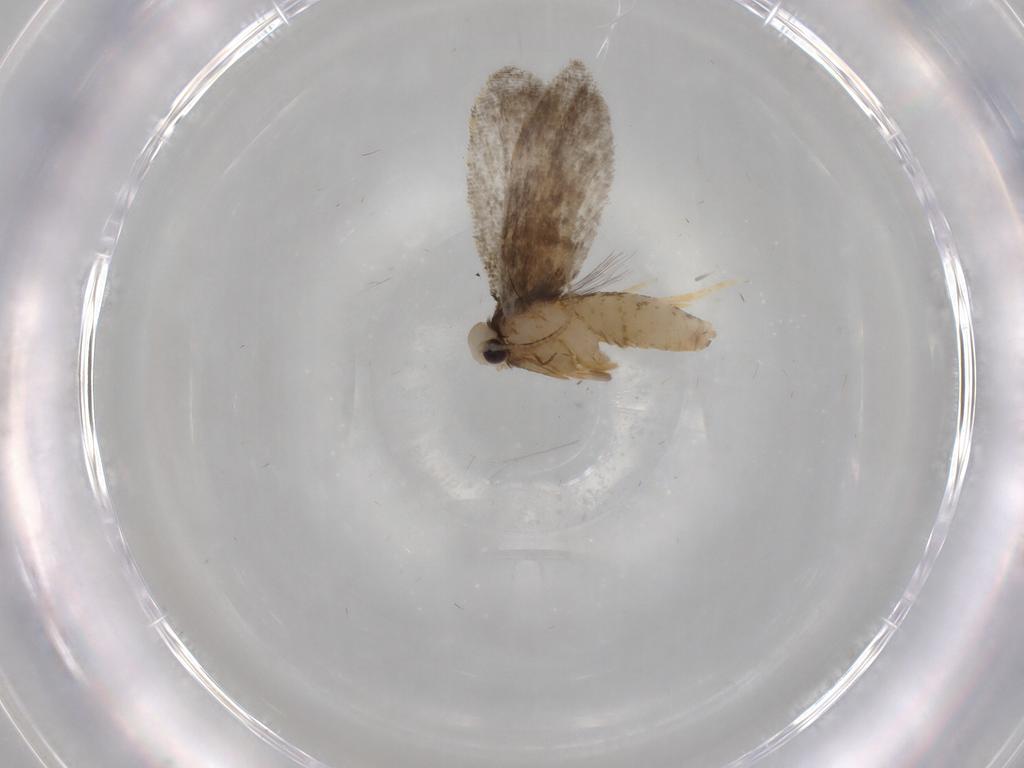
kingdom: Animalia
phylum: Arthropoda
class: Insecta
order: Lepidoptera
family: Psychidae
